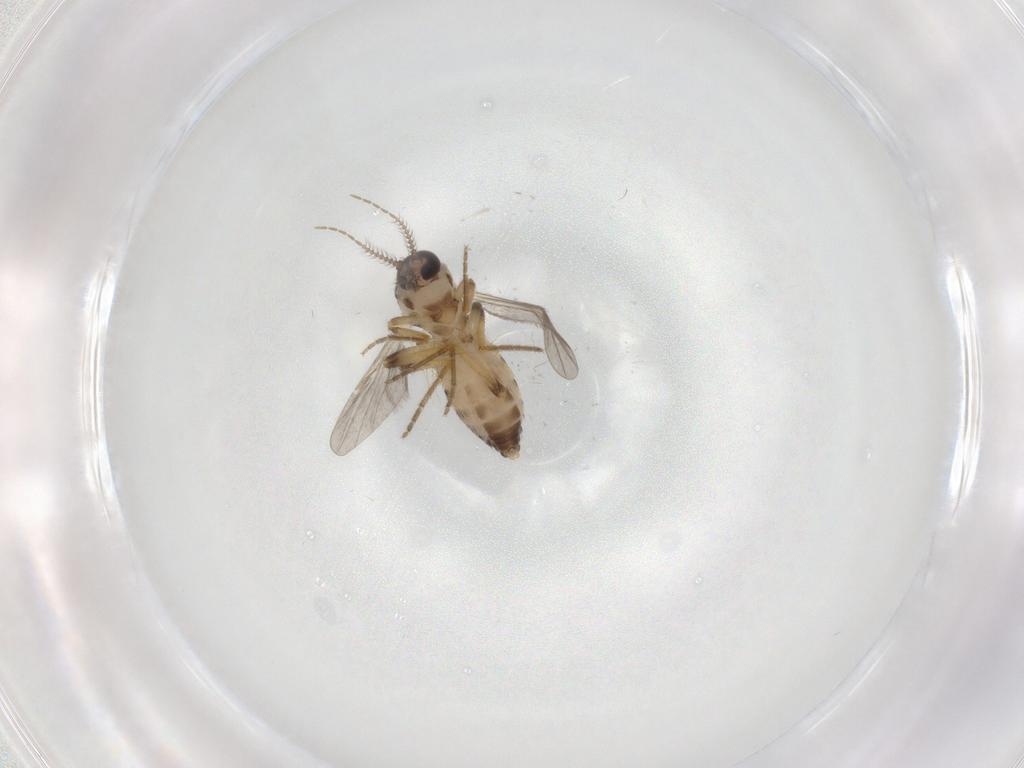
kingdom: Animalia
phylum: Arthropoda
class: Insecta
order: Diptera
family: Ceratopogonidae
